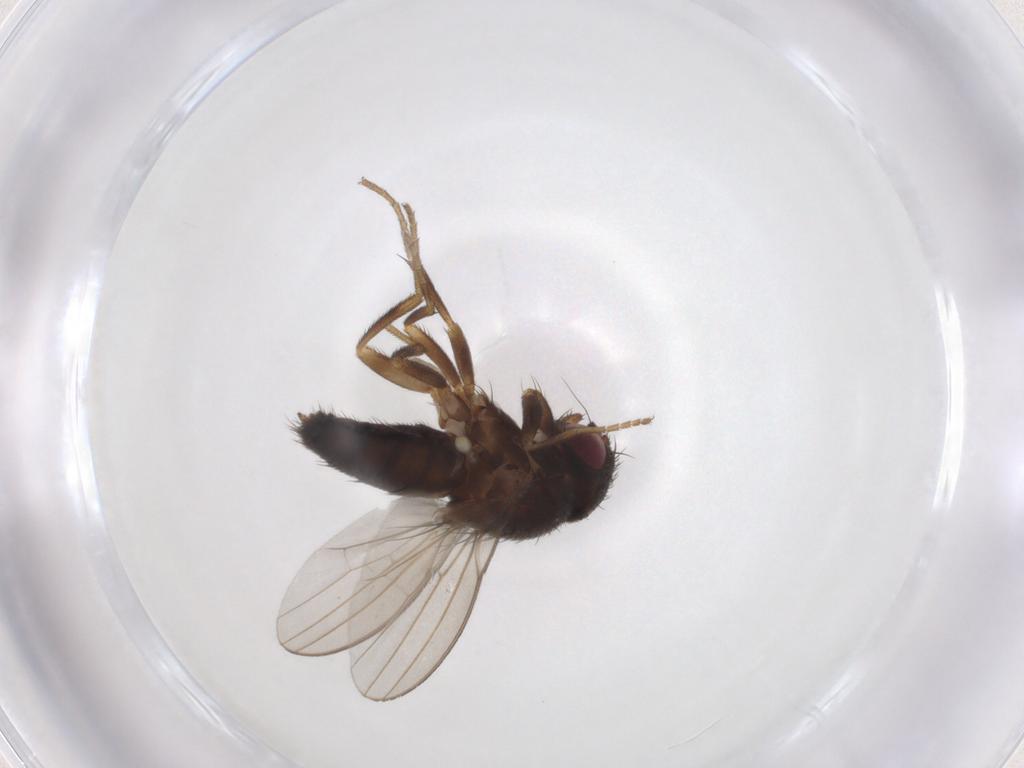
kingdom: Animalia
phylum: Arthropoda
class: Insecta
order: Diptera
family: Milichiidae
